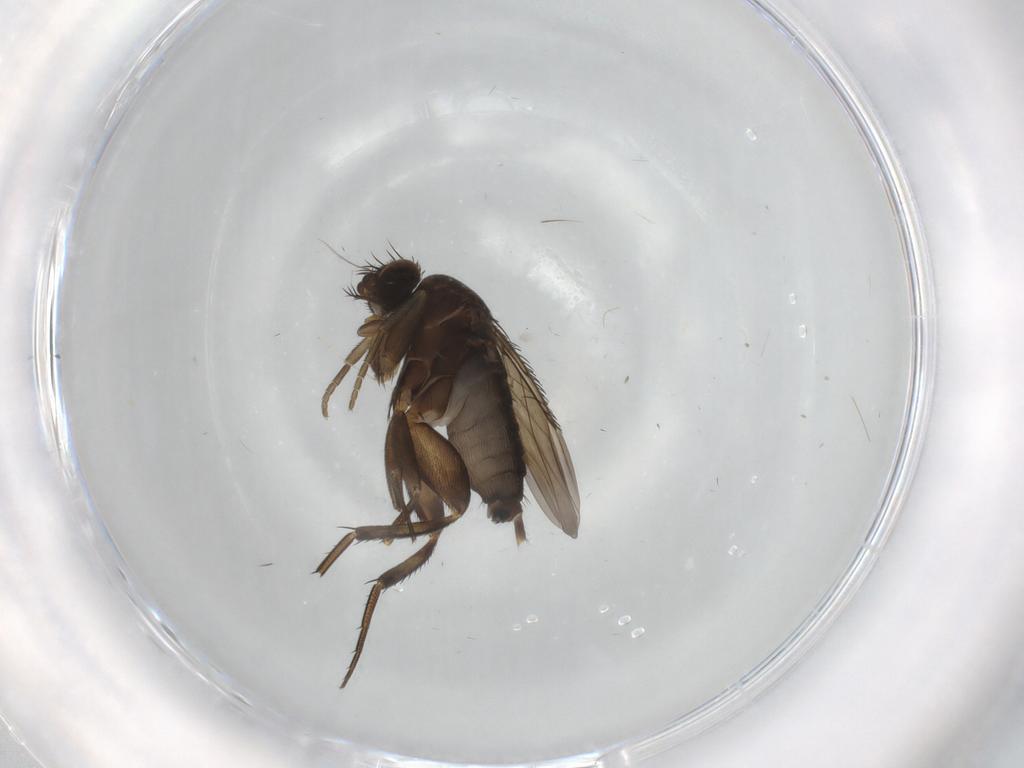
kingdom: Animalia
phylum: Arthropoda
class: Insecta
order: Diptera
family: Phoridae
